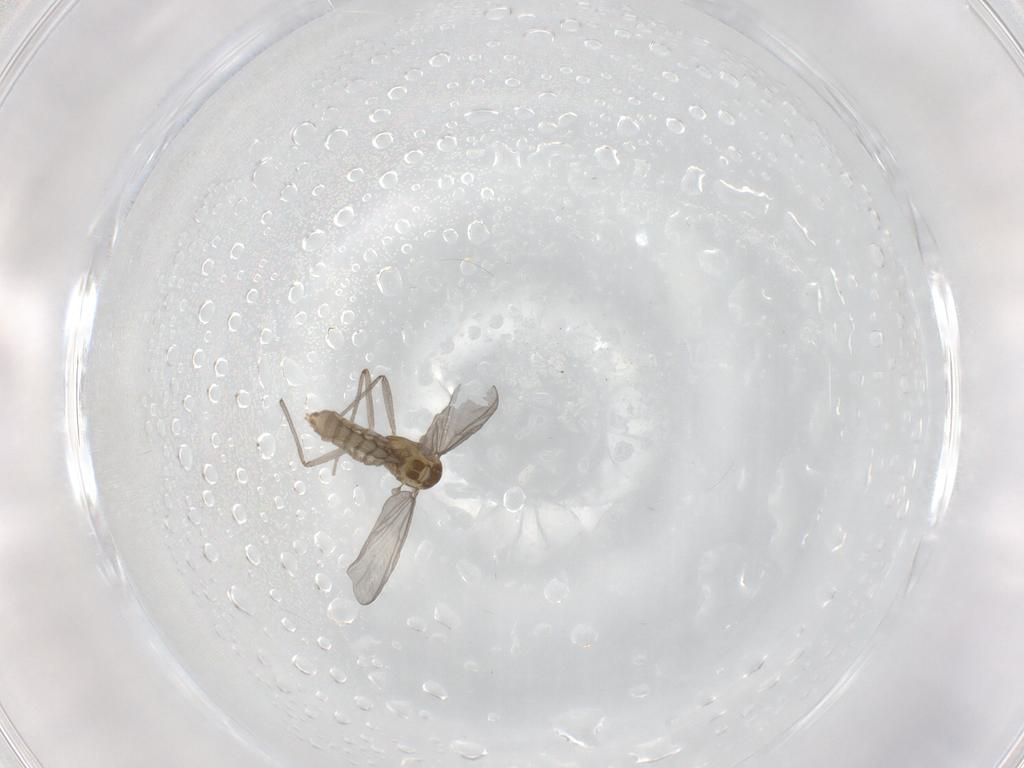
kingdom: Animalia
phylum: Arthropoda
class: Insecta
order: Diptera
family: Chironomidae
